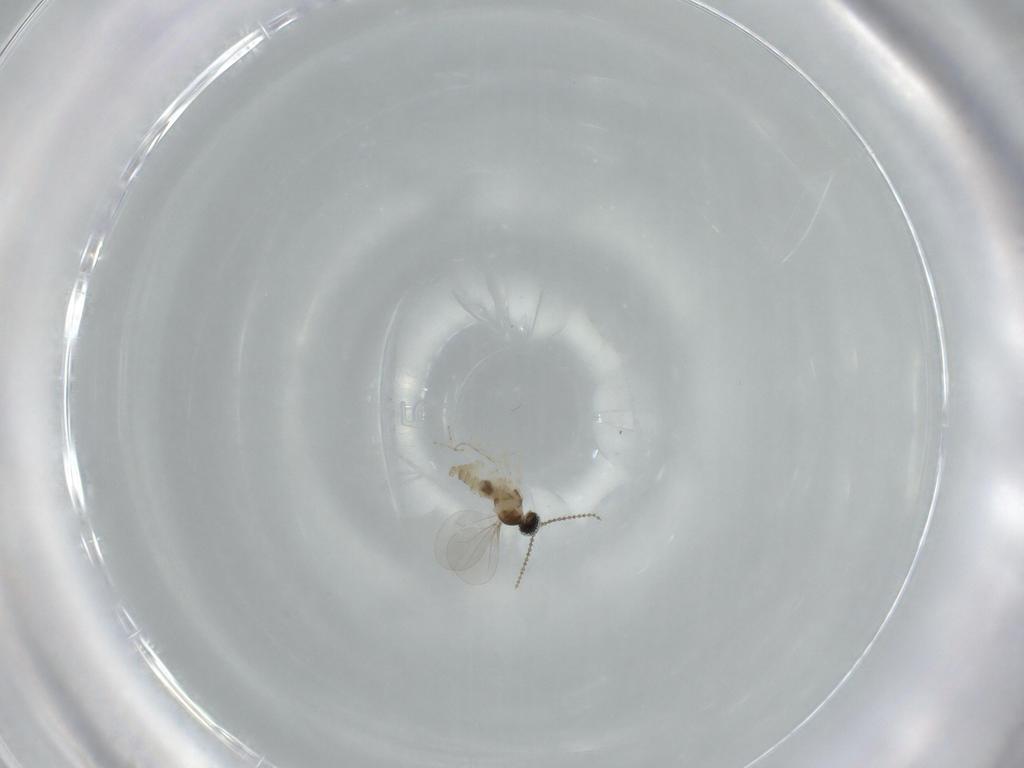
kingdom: Animalia
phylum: Arthropoda
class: Insecta
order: Diptera
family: Cecidomyiidae
